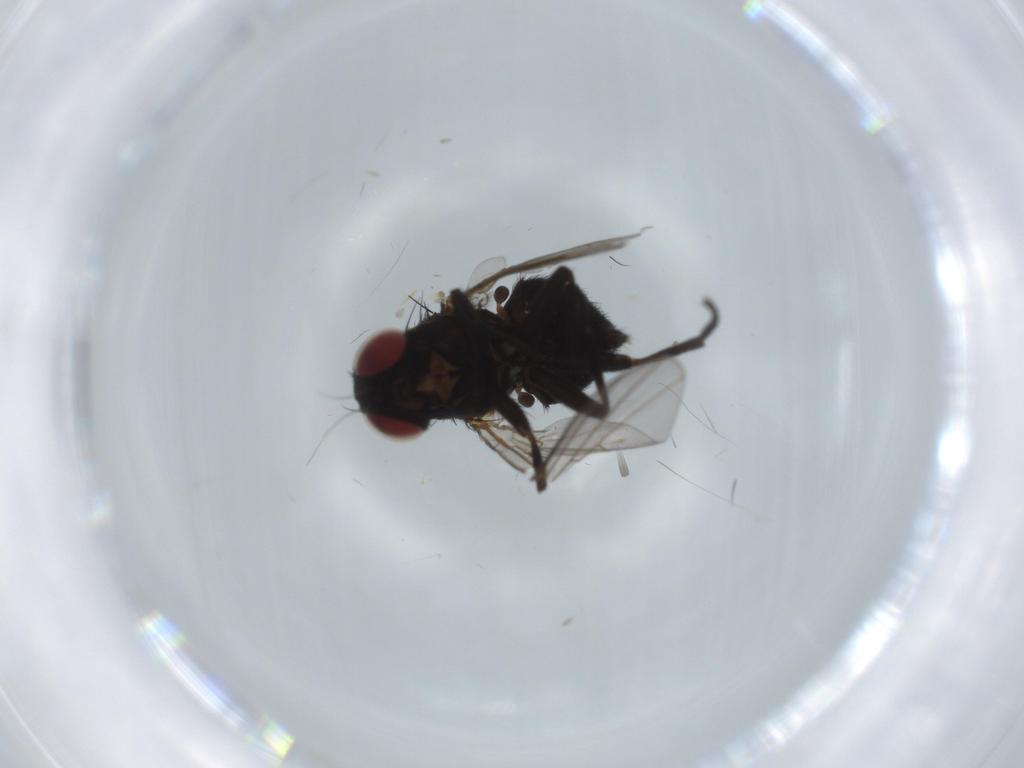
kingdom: Animalia
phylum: Arthropoda
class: Insecta
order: Diptera
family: Agromyzidae
